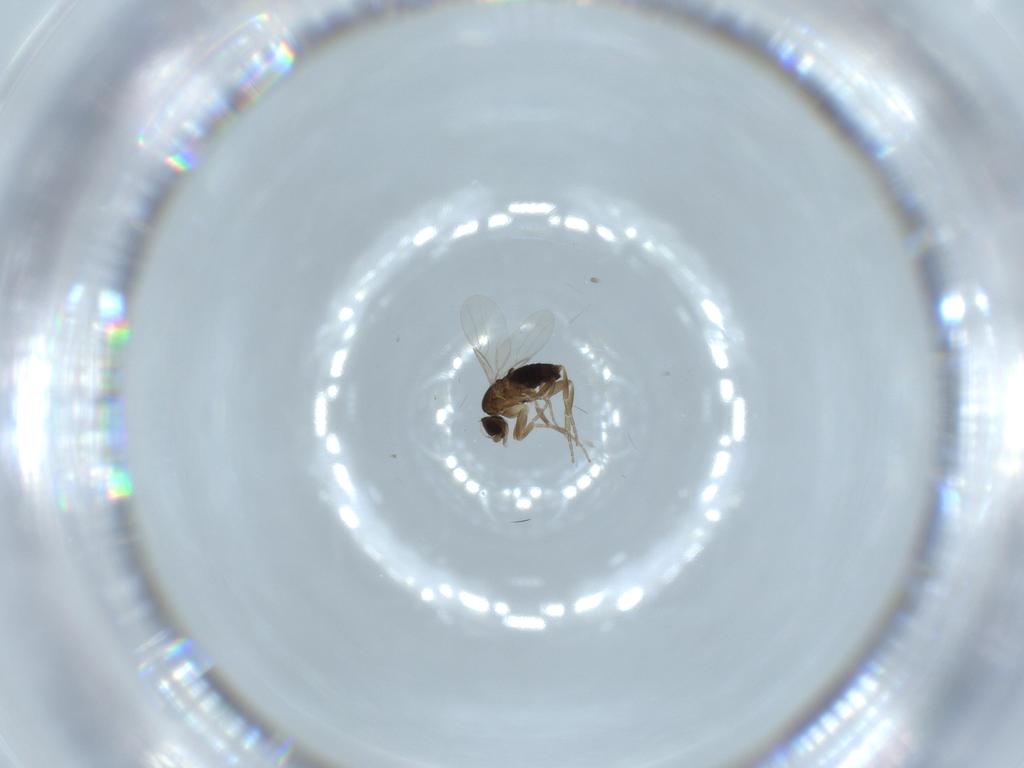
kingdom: Animalia
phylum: Arthropoda
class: Insecta
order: Diptera
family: Phoridae
